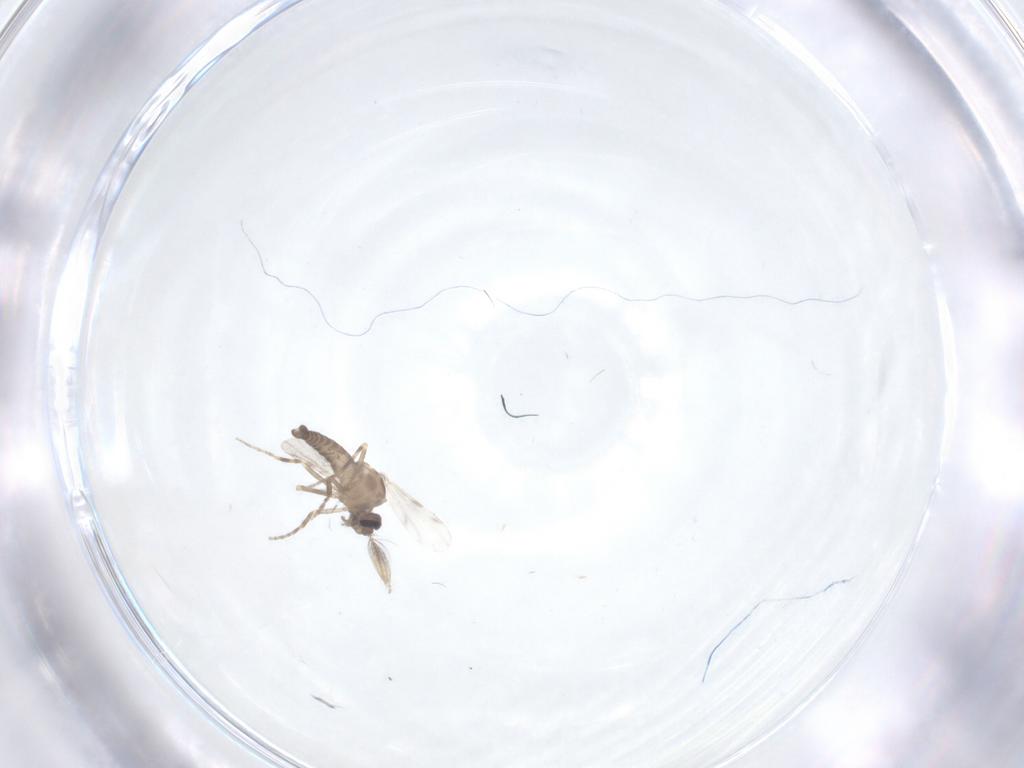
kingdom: Animalia
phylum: Arthropoda
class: Insecta
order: Diptera
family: Ceratopogonidae
